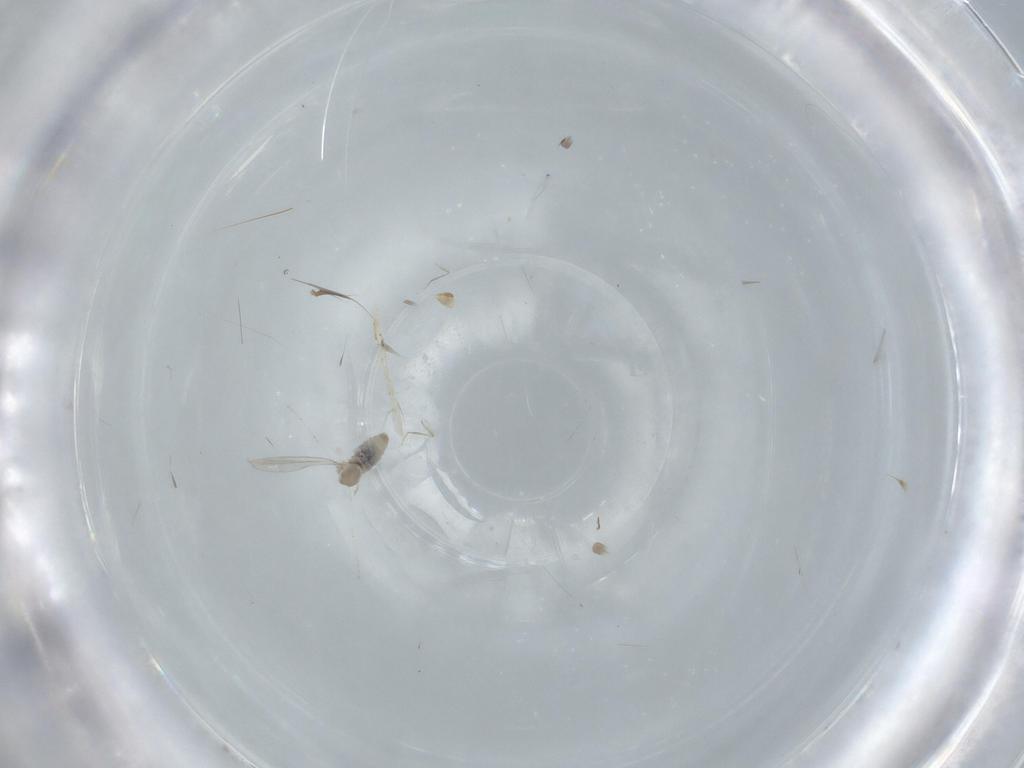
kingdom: Animalia
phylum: Arthropoda
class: Insecta
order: Diptera
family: Cecidomyiidae
